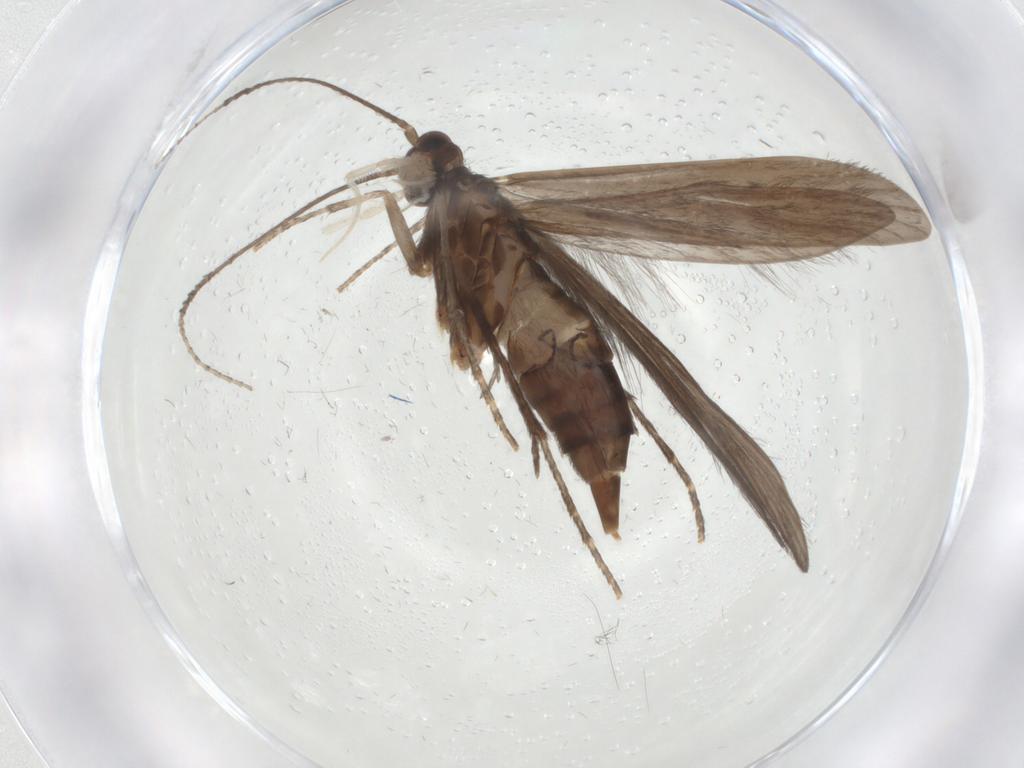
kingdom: Animalia
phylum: Arthropoda
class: Insecta
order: Trichoptera
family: Xiphocentronidae
